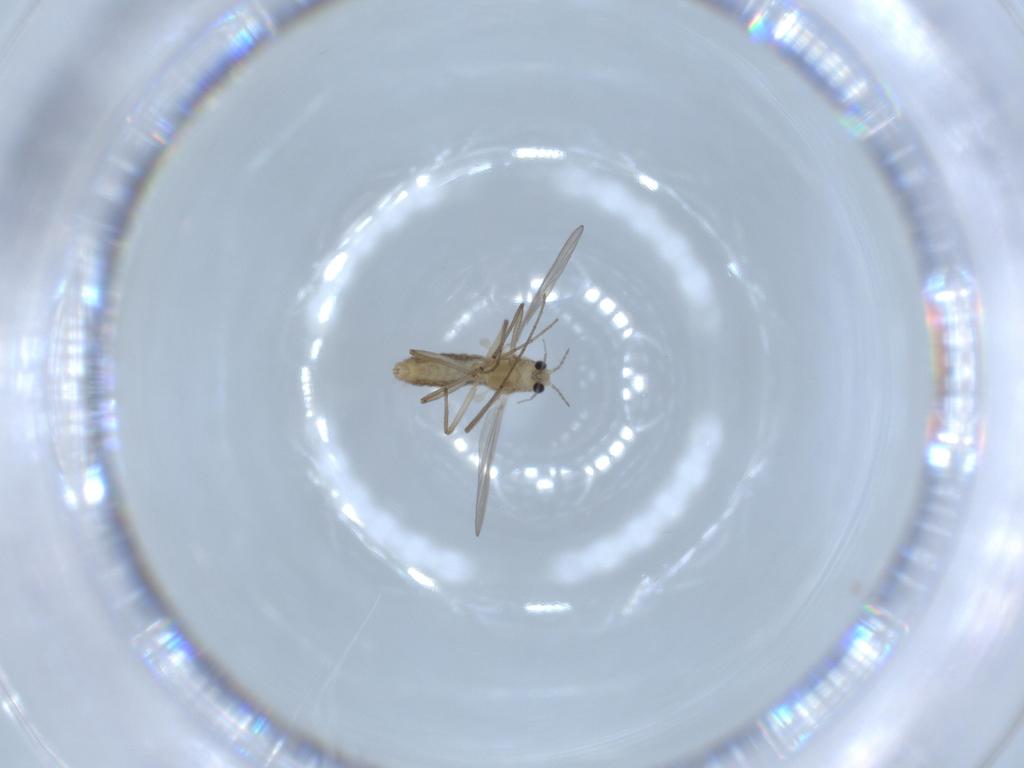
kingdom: Animalia
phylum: Arthropoda
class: Insecta
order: Diptera
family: Chironomidae
